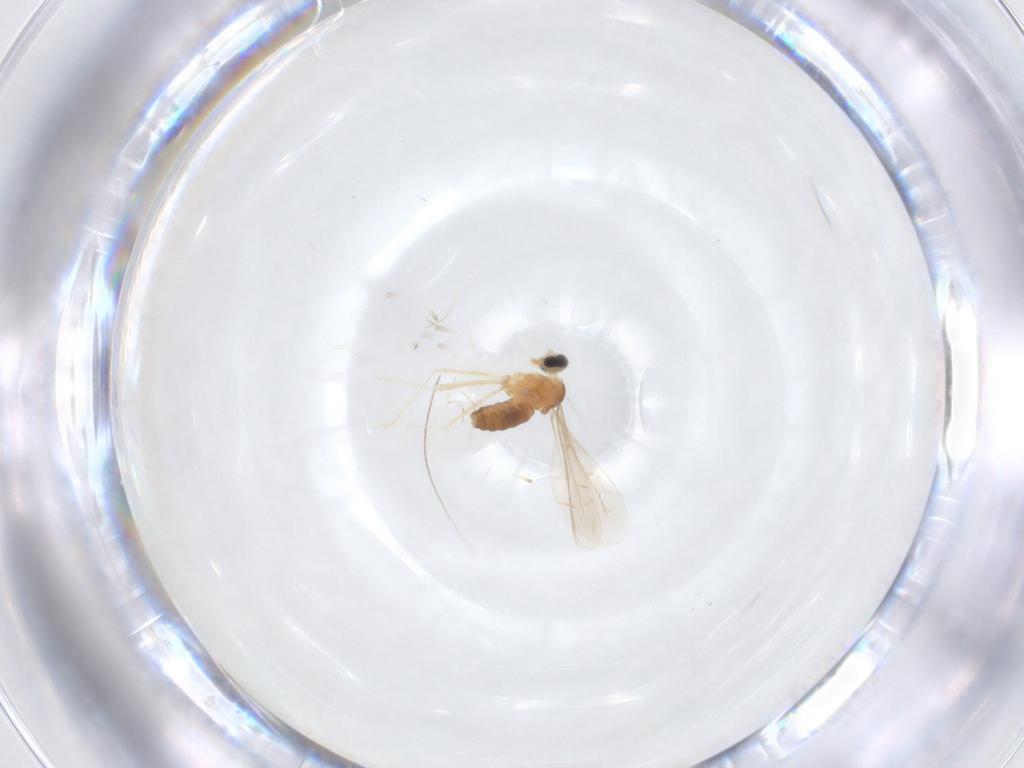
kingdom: Animalia
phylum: Arthropoda
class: Insecta
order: Diptera
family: Cecidomyiidae
